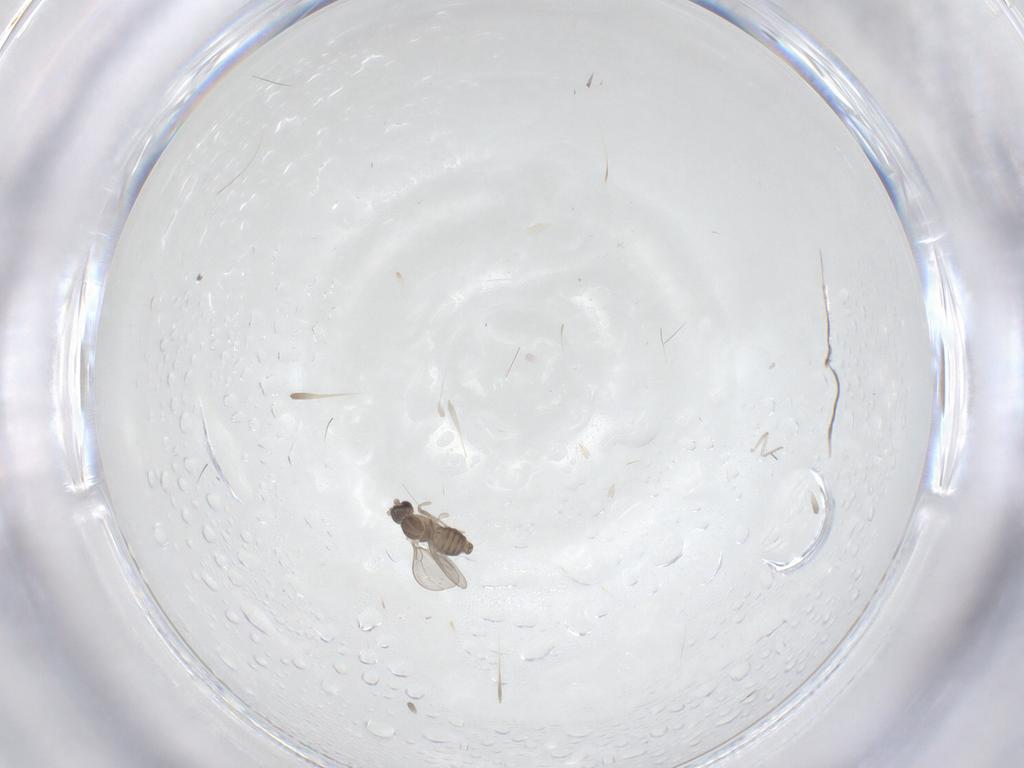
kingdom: Animalia
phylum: Arthropoda
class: Insecta
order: Diptera
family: Cecidomyiidae
